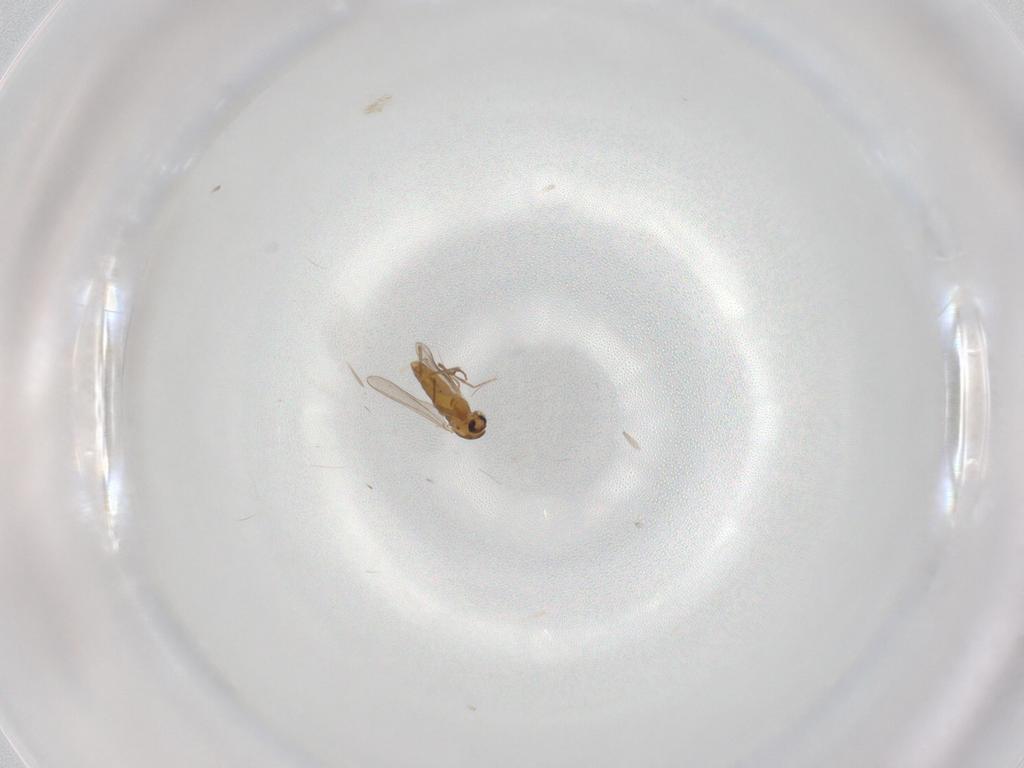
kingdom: Animalia
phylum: Arthropoda
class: Insecta
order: Diptera
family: Chironomidae
